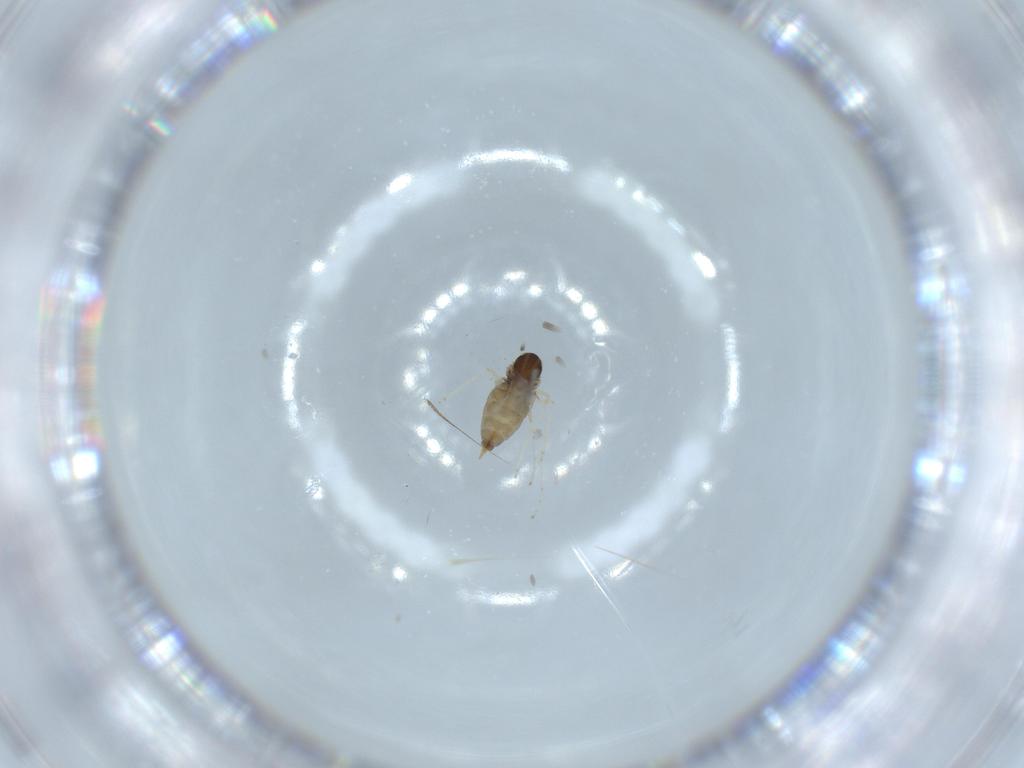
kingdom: Animalia
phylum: Arthropoda
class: Insecta
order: Diptera
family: Cecidomyiidae
